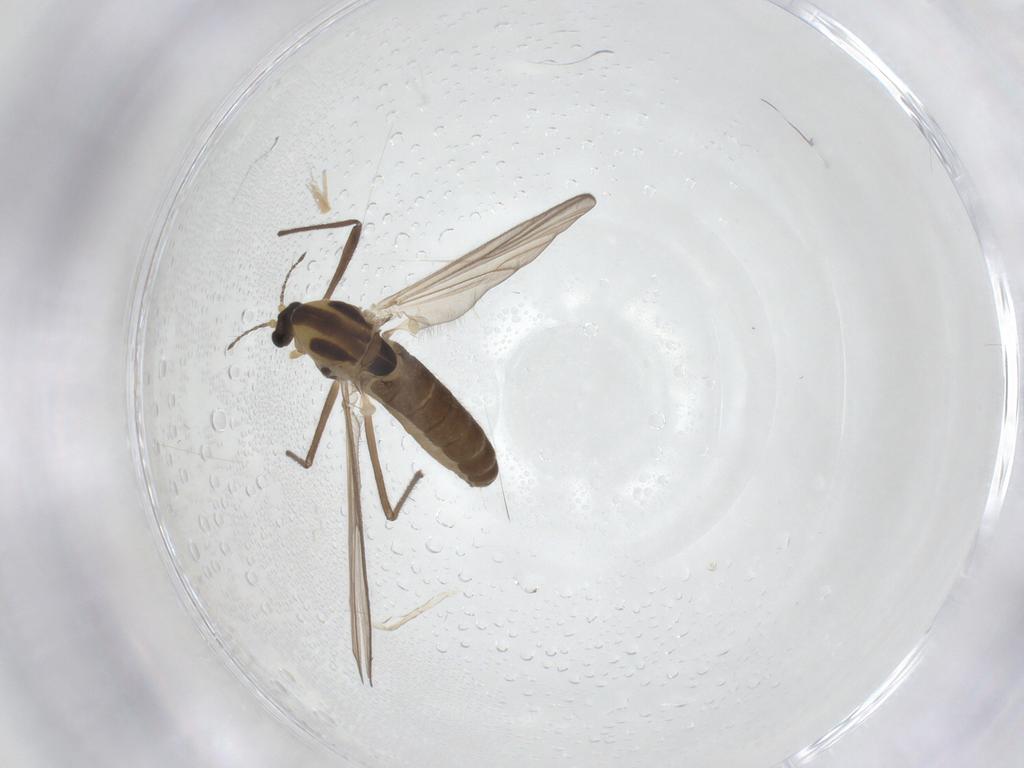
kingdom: Animalia
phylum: Arthropoda
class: Insecta
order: Diptera
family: Chironomidae
